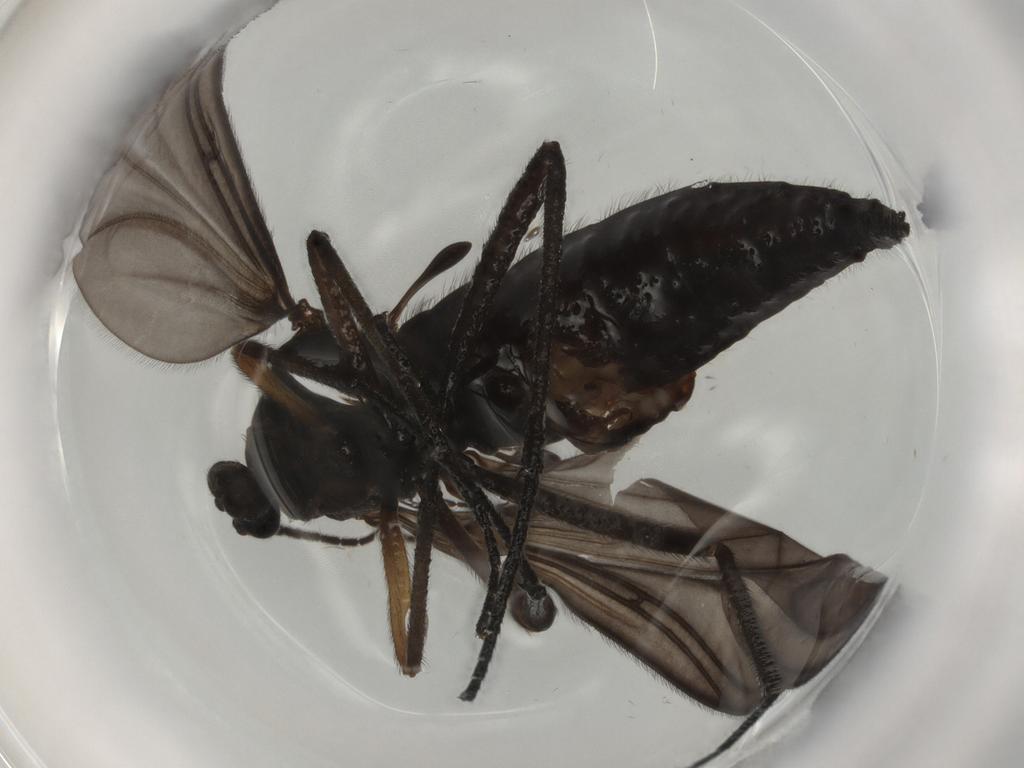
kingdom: Animalia
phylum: Arthropoda
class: Insecta
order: Diptera
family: Sciaridae
